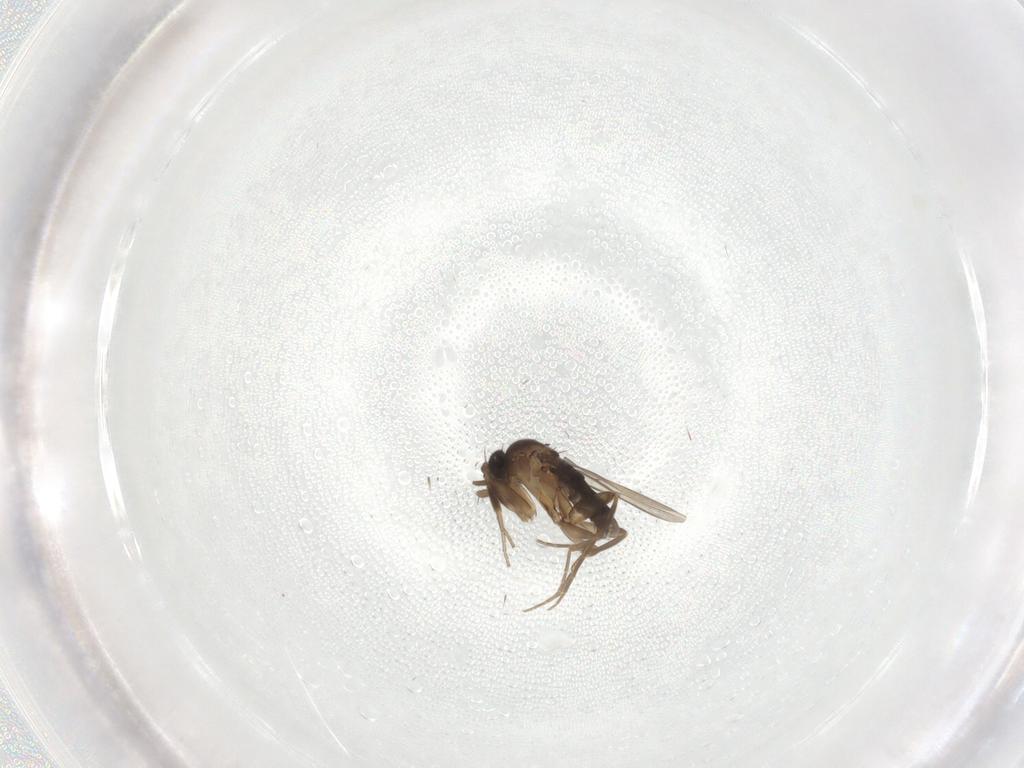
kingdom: Animalia
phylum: Arthropoda
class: Insecta
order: Diptera
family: Phoridae
